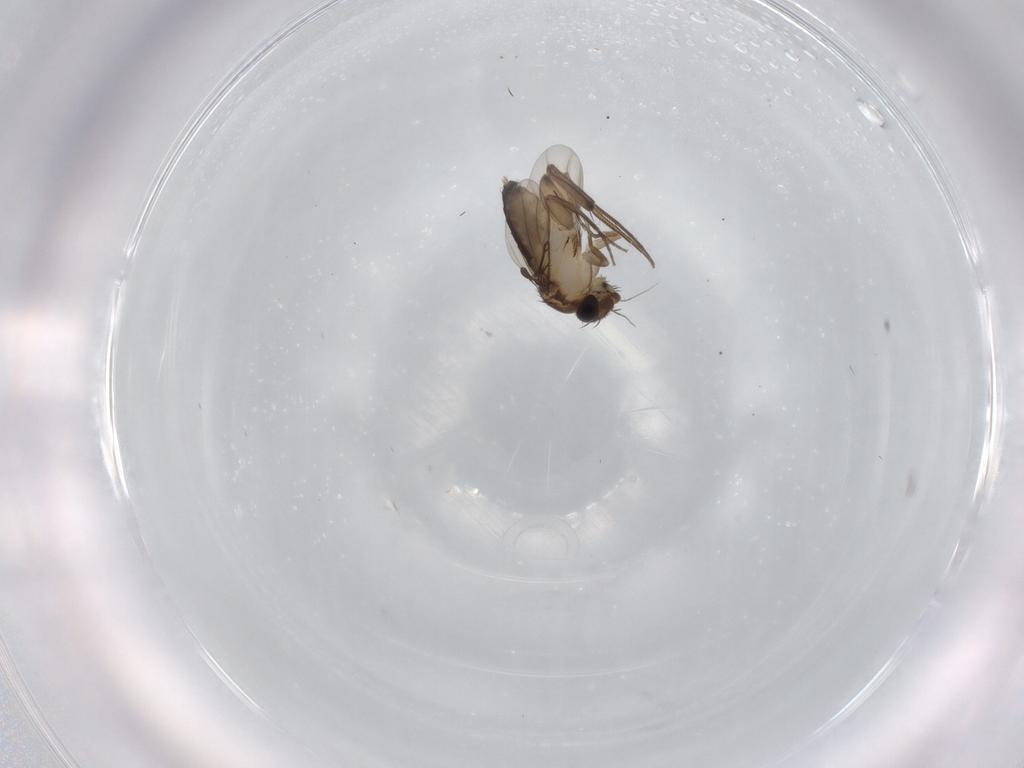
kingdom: Animalia
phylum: Arthropoda
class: Insecta
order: Diptera
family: Phoridae
